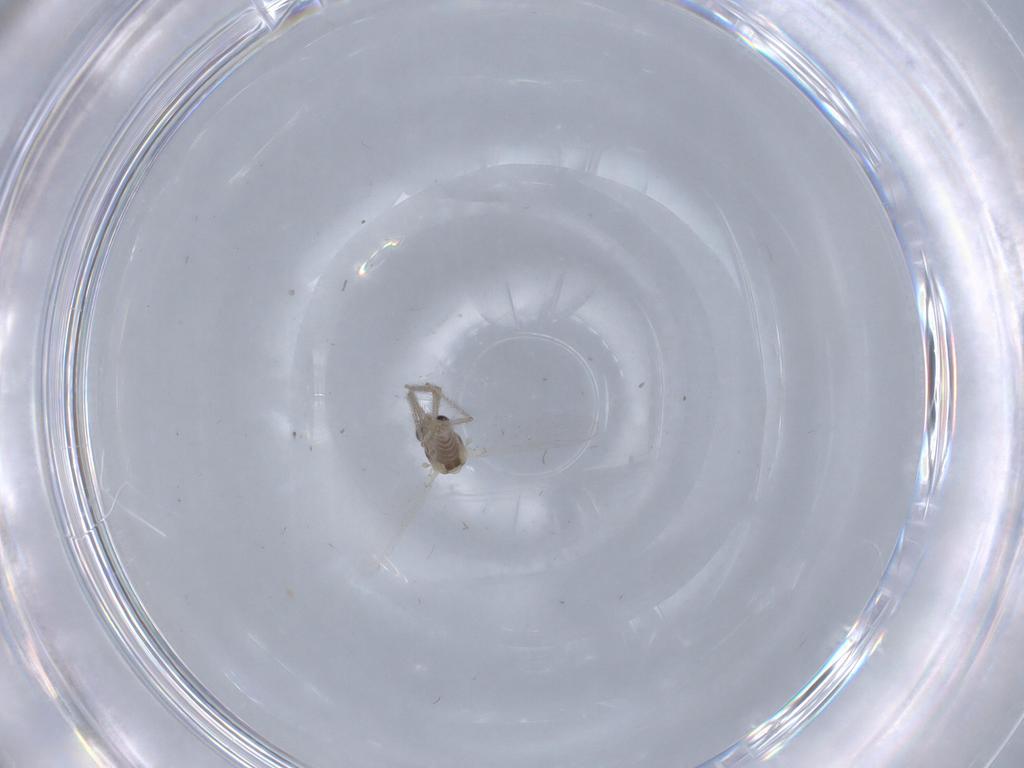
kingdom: Animalia
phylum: Arthropoda
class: Insecta
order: Diptera
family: Chironomidae
